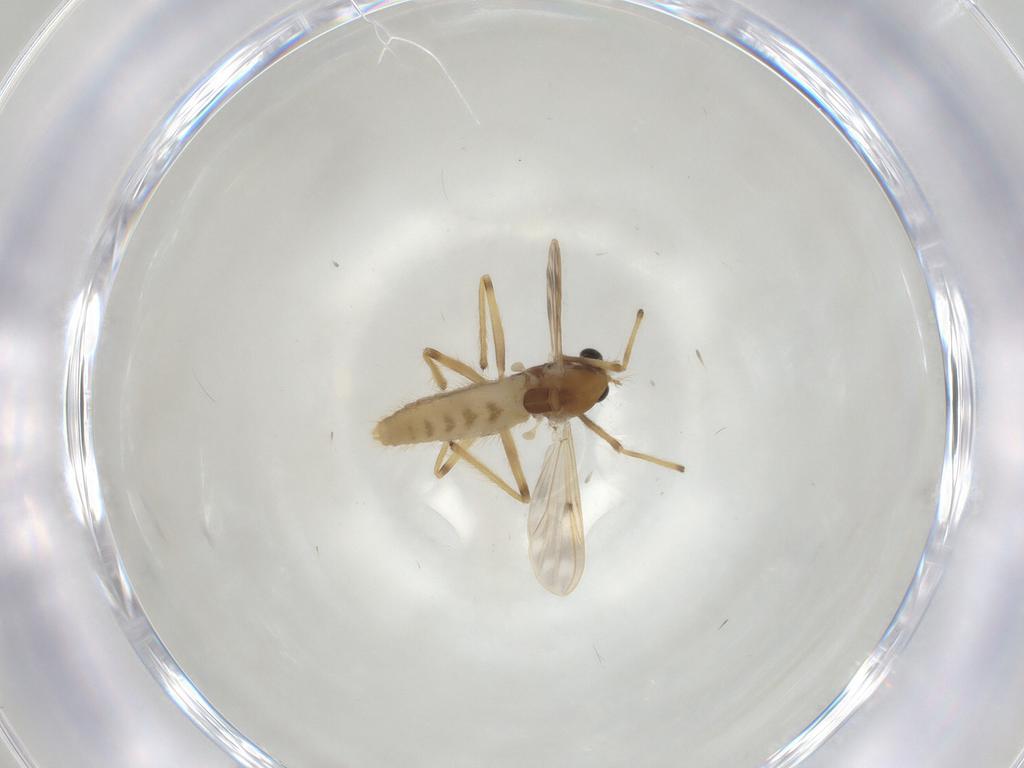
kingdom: Animalia
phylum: Arthropoda
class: Insecta
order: Diptera
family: Chironomidae
